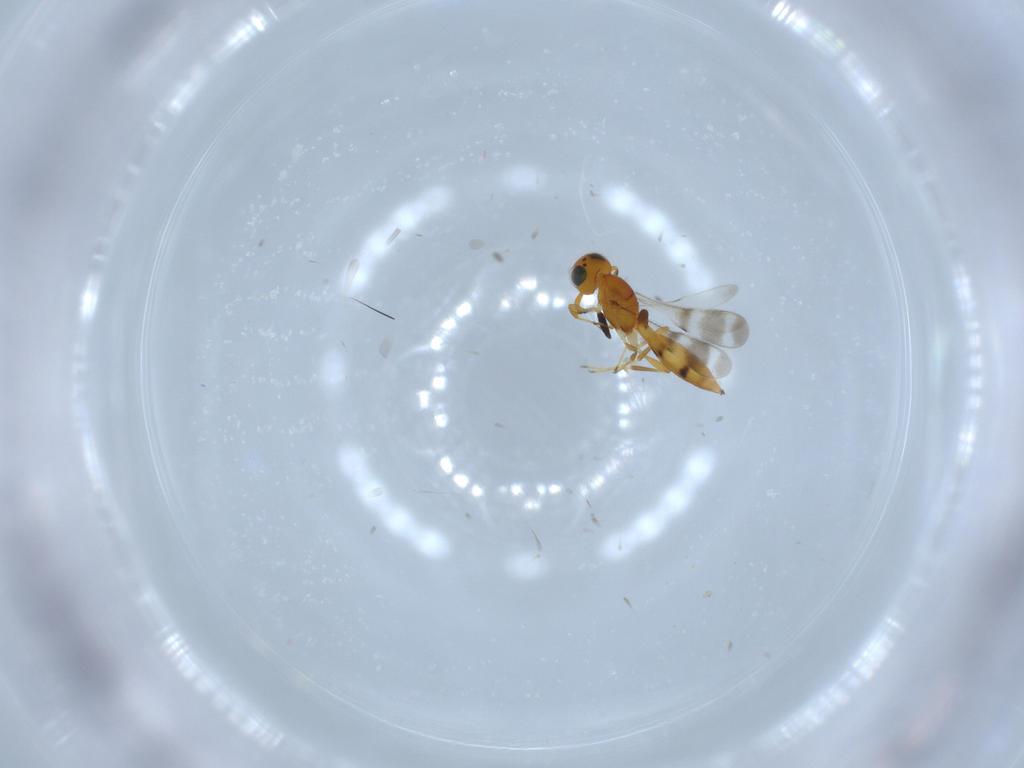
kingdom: Animalia
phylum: Arthropoda
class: Insecta
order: Hymenoptera
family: Scelionidae
